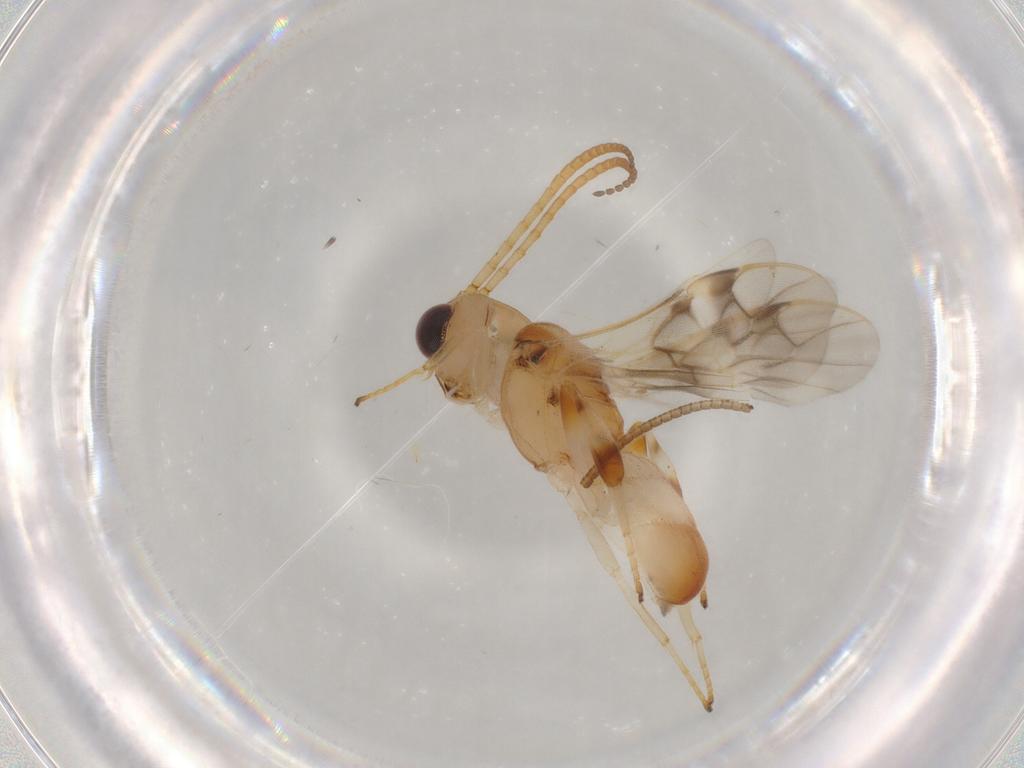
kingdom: Animalia
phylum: Arthropoda
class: Insecta
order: Hymenoptera
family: Braconidae
